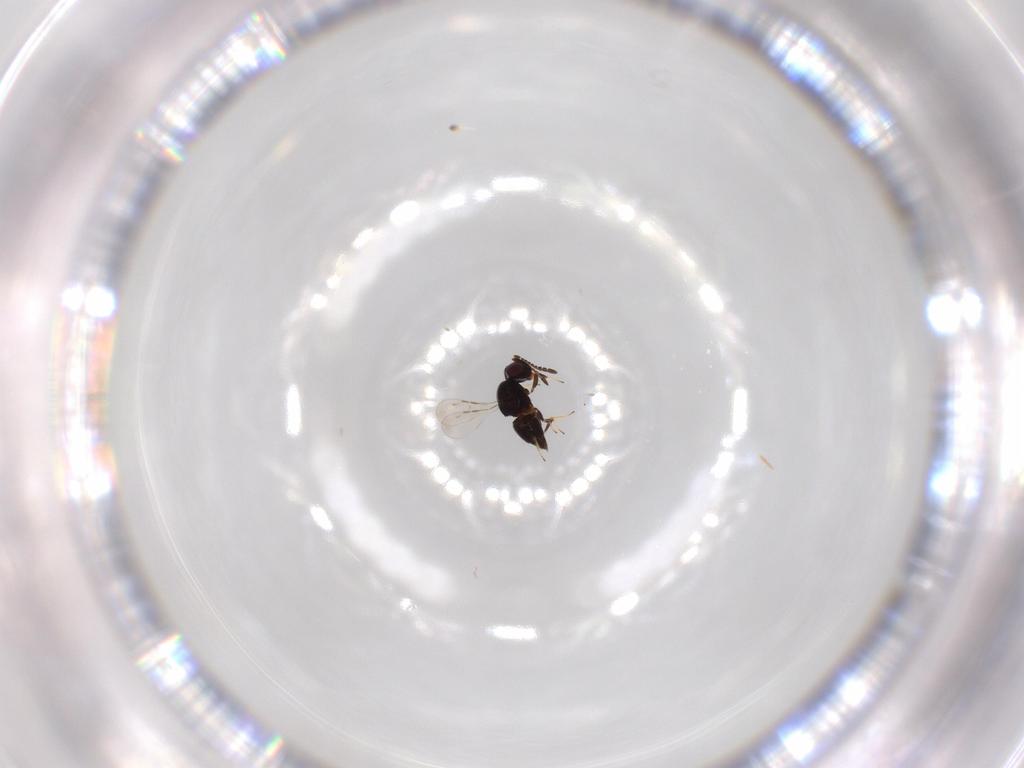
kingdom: Animalia
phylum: Arthropoda
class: Insecta
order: Hymenoptera
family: Ceraphronidae
